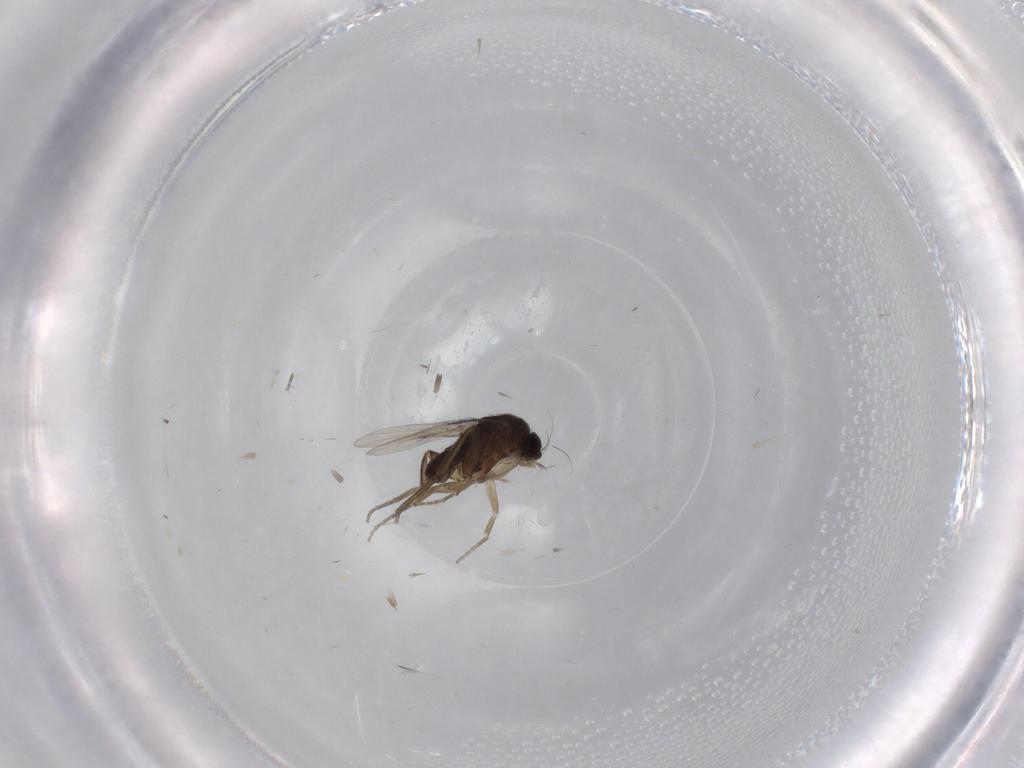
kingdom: Animalia
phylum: Arthropoda
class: Insecta
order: Diptera
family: Phoridae
